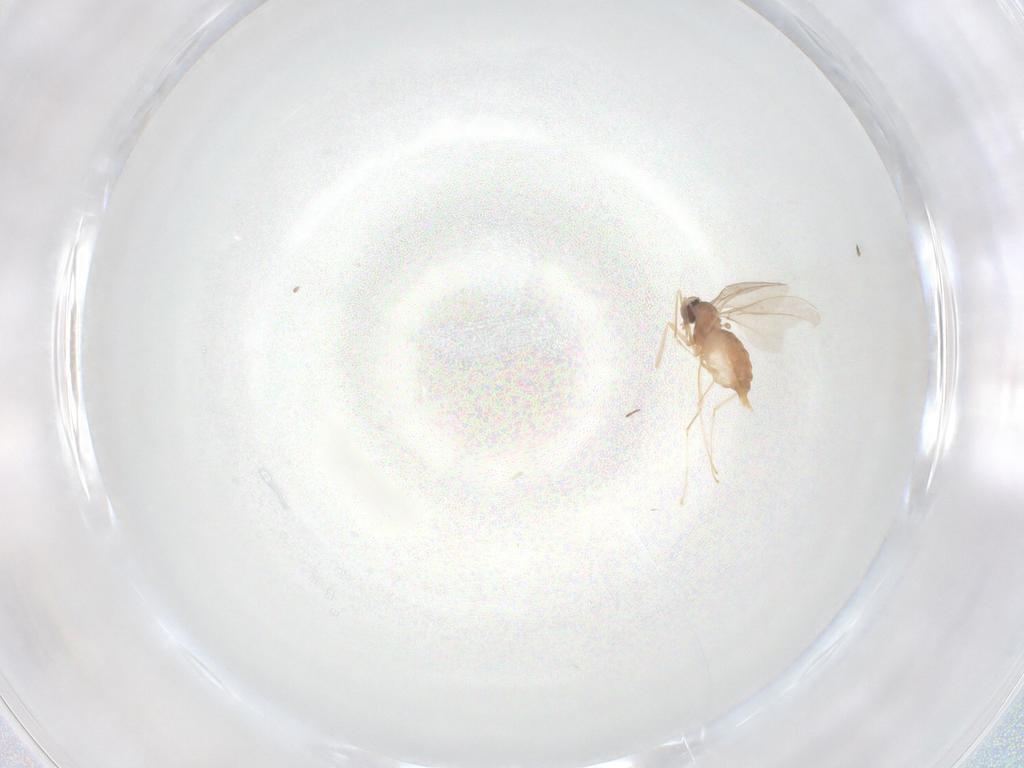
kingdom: Animalia
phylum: Arthropoda
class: Insecta
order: Diptera
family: Cecidomyiidae
